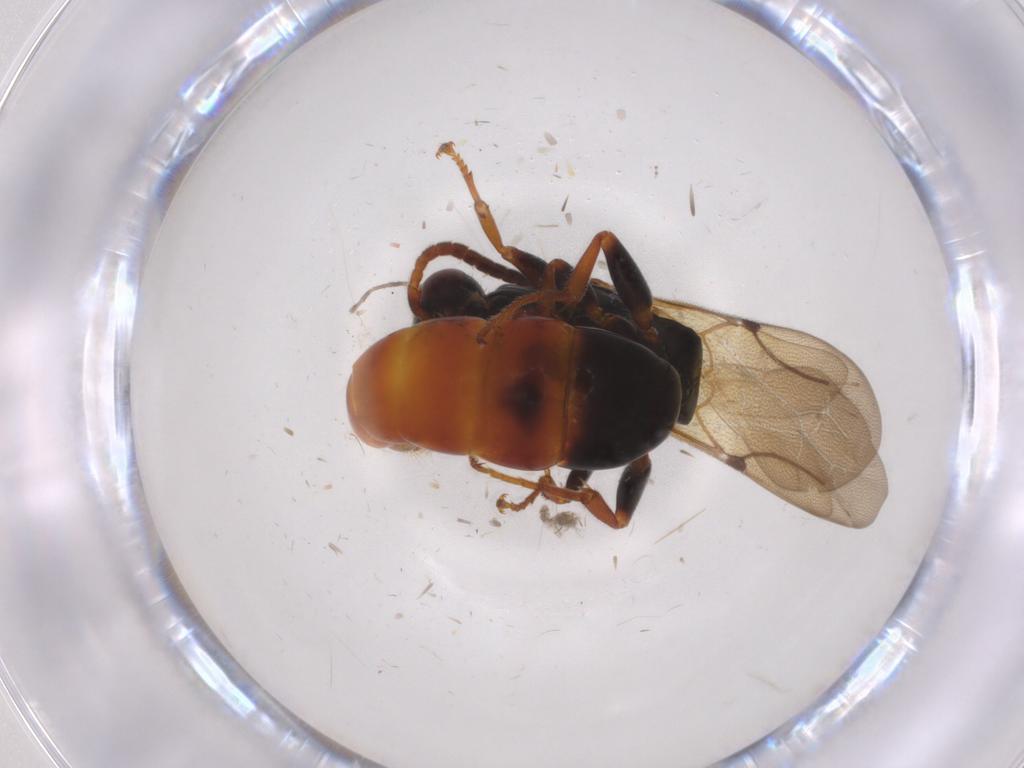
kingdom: Animalia
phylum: Arthropoda
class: Insecta
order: Hymenoptera
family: Bethylidae
